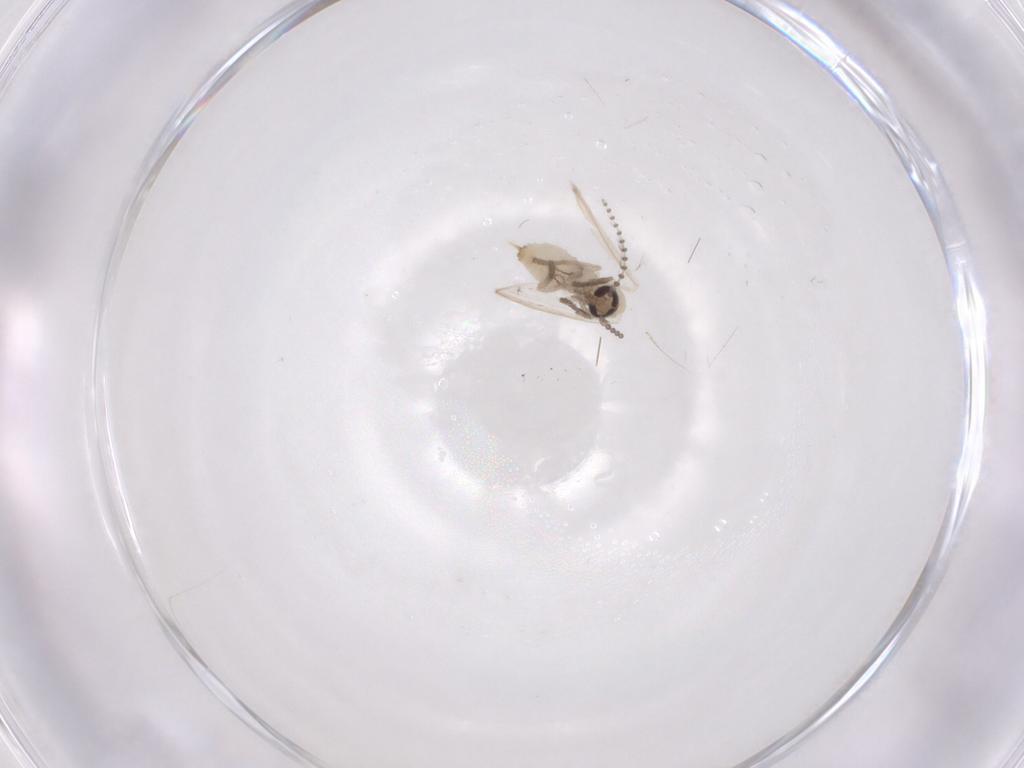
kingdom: Animalia
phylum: Arthropoda
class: Insecta
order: Diptera
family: Psychodidae
